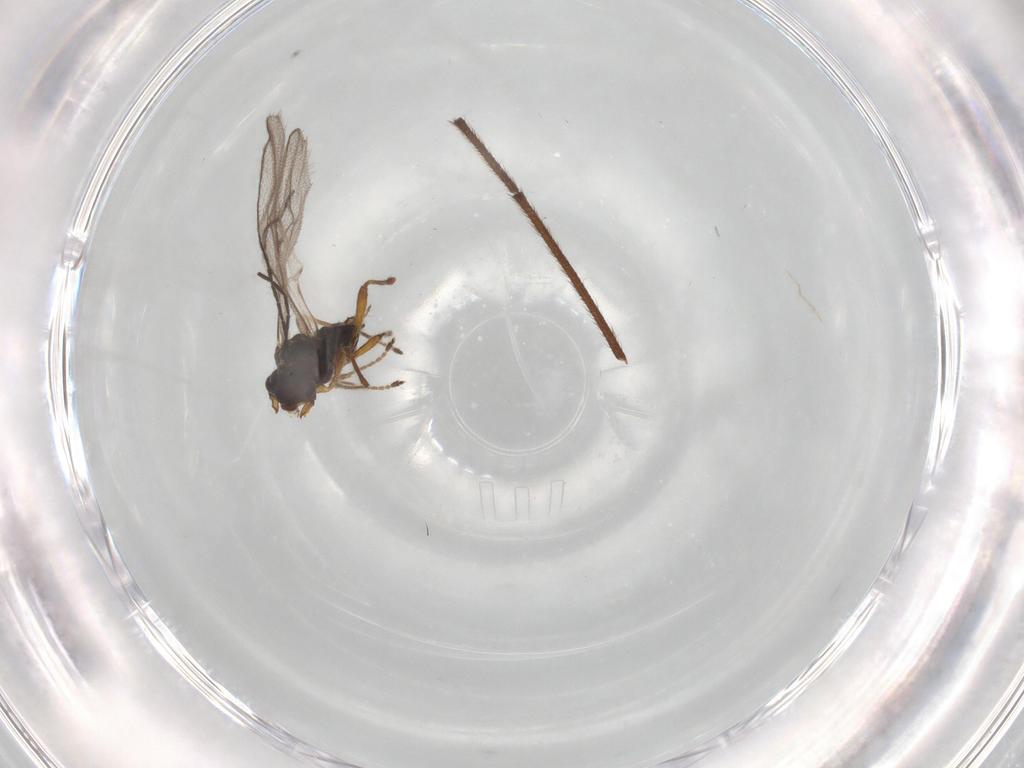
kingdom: Animalia
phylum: Arthropoda
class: Insecta
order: Hymenoptera
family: Braconidae
